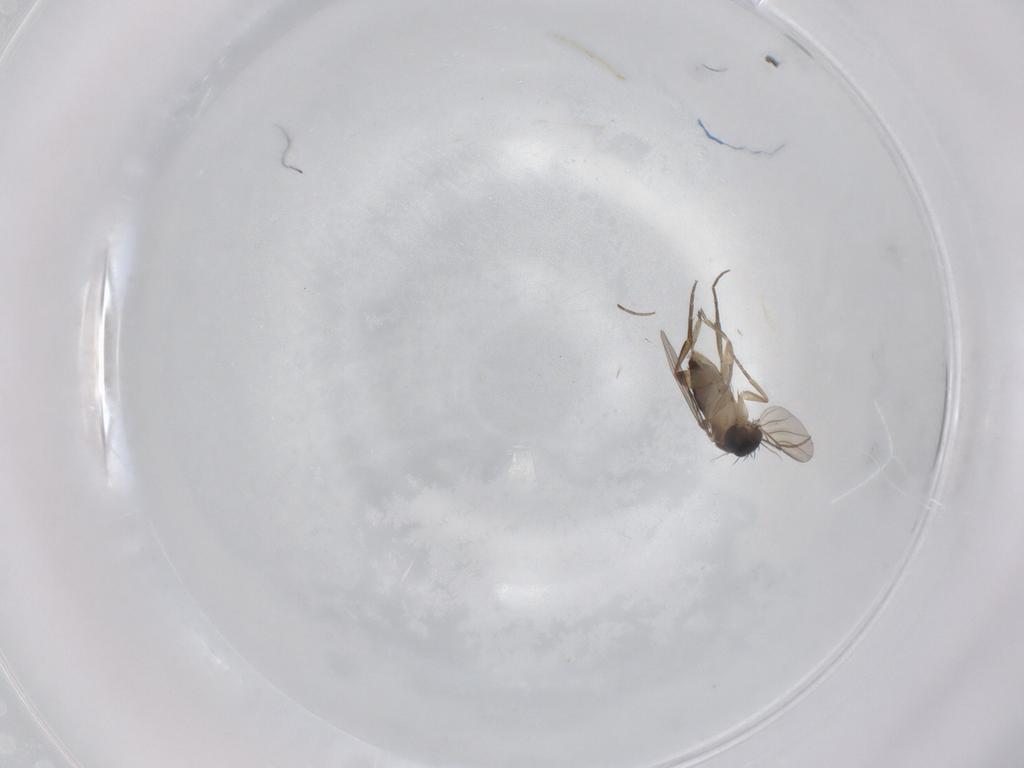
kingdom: Animalia
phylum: Arthropoda
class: Insecta
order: Diptera
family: Phoridae
